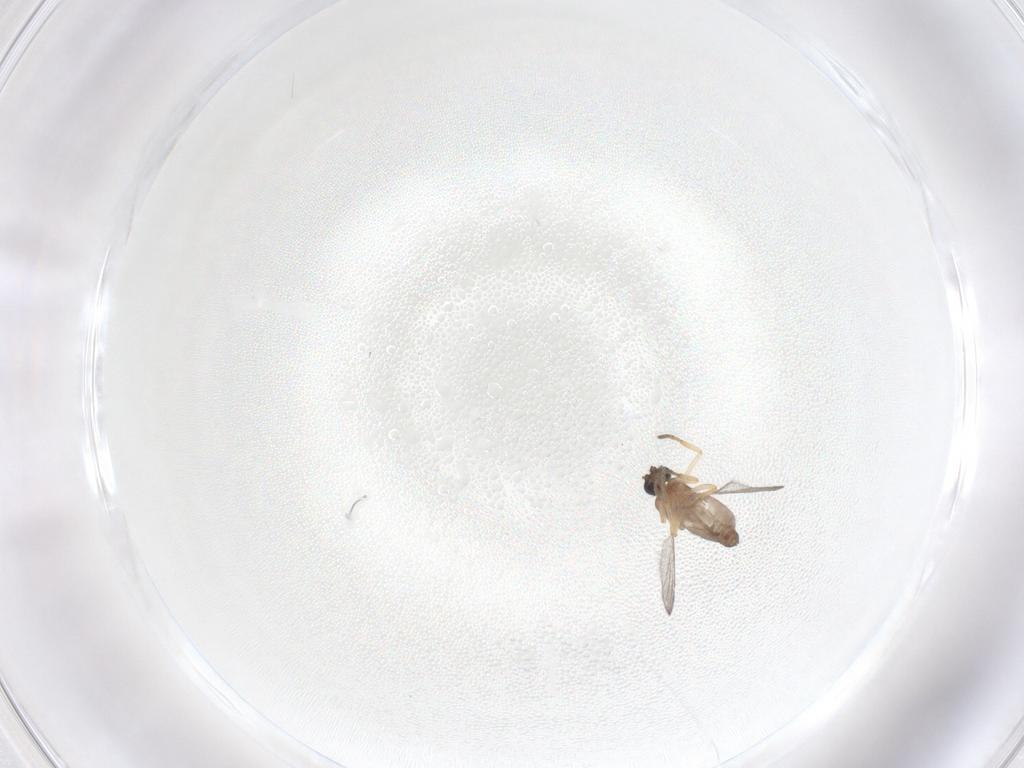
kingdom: Animalia
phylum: Arthropoda
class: Insecta
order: Diptera
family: Ceratopogonidae
